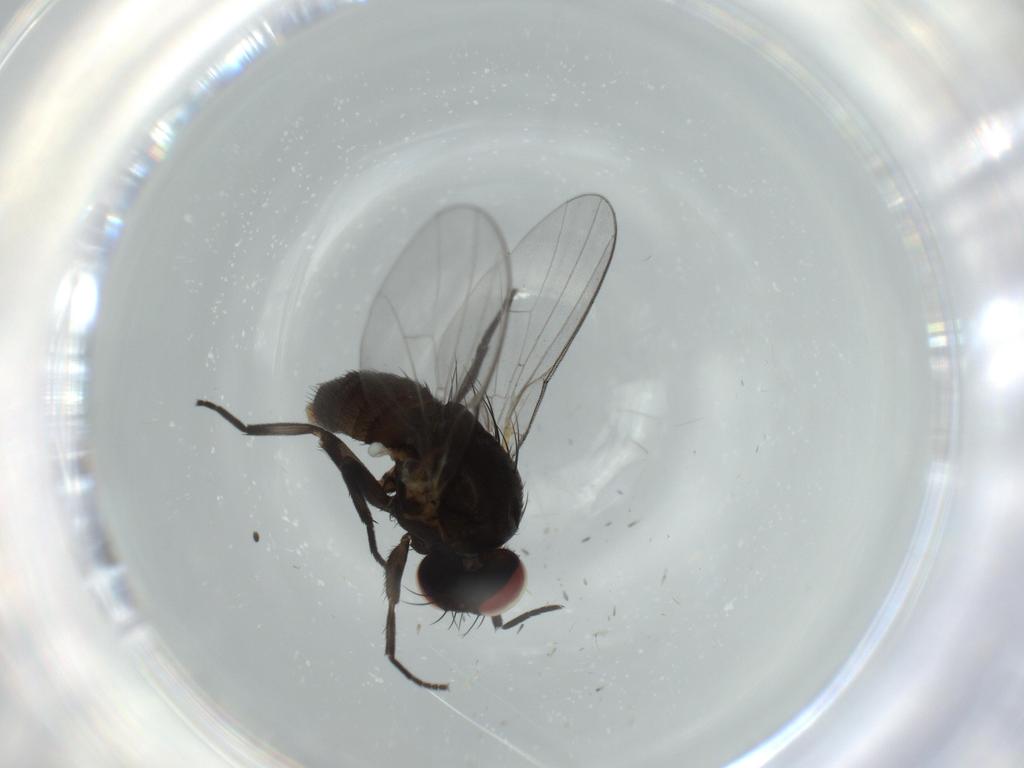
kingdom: Animalia
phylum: Arthropoda
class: Insecta
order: Diptera
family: Culicidae
